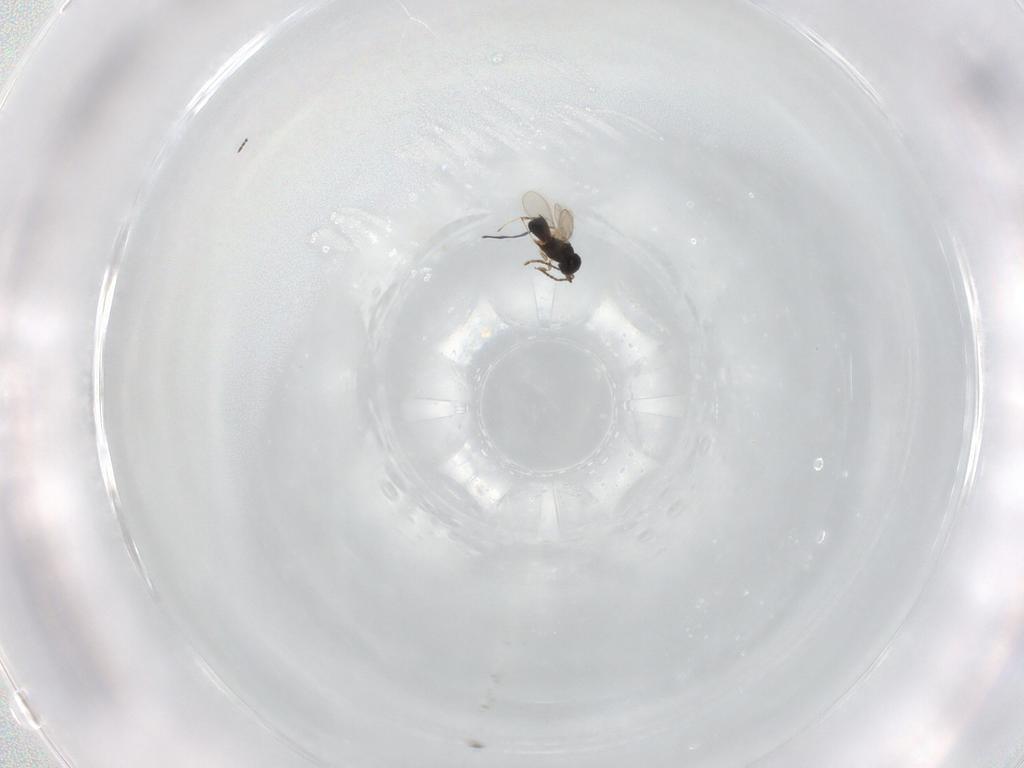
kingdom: Animalia
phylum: Arthropoda
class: Insecta
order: Hymenoptera
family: Scelionidae
